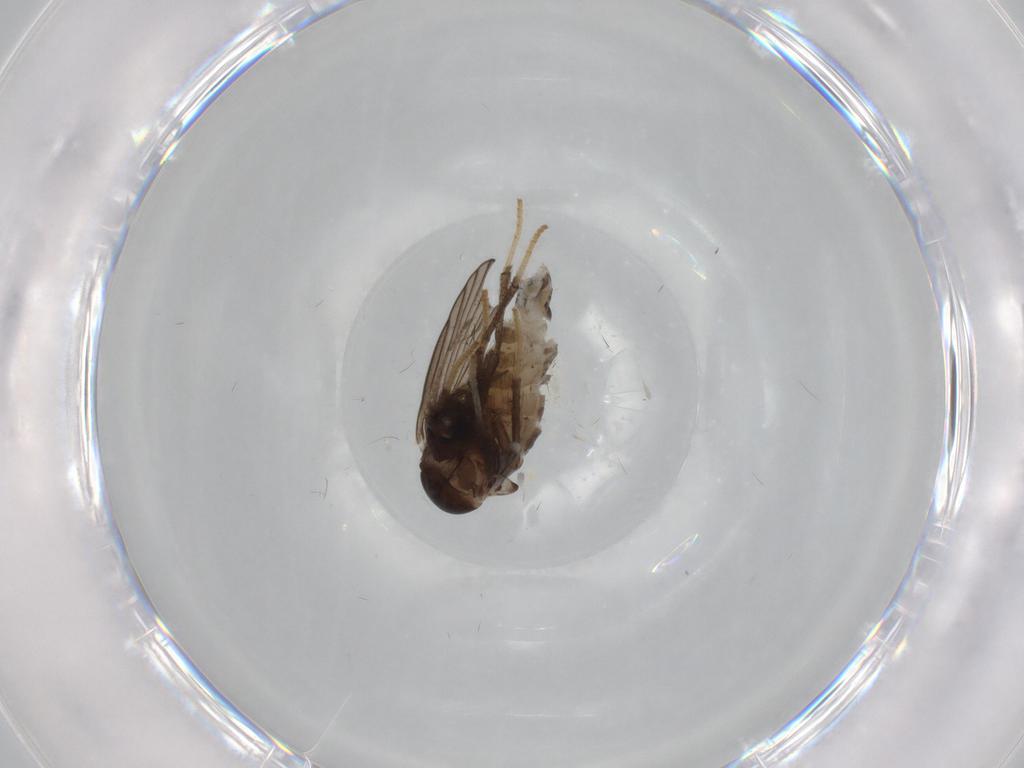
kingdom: Animalia
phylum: Arthropoda
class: Insecta
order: Diptera
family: Psychodidae
